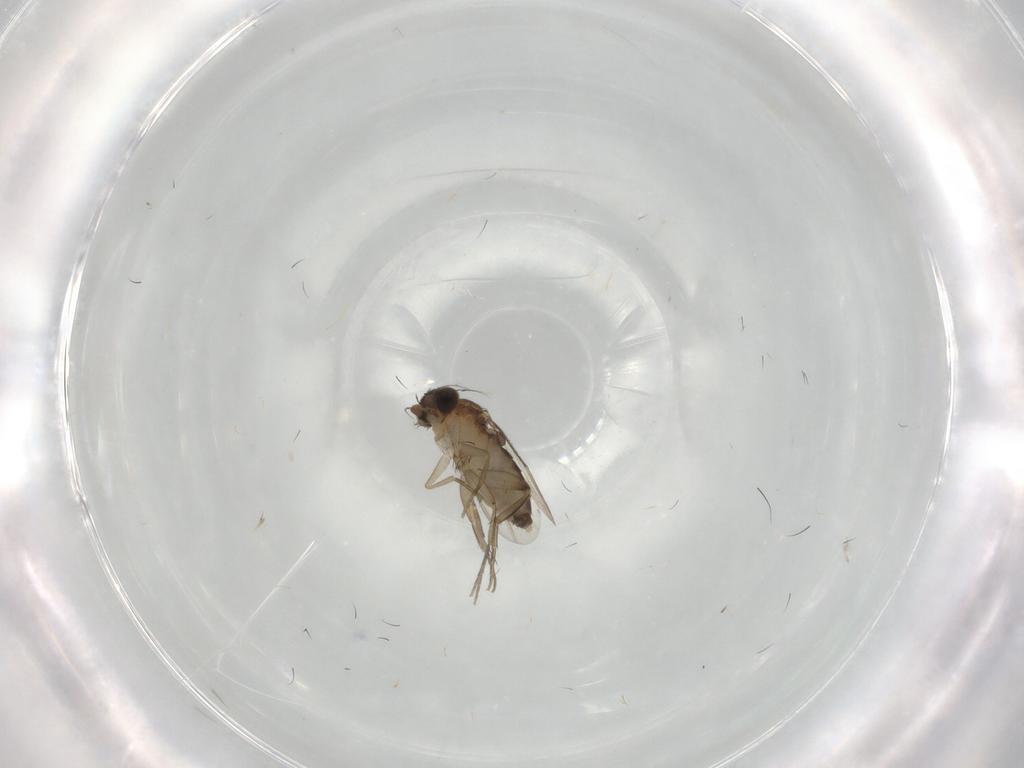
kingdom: Animalia
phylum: Arthropoda
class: Insecta
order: Diptera
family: Phoridae
